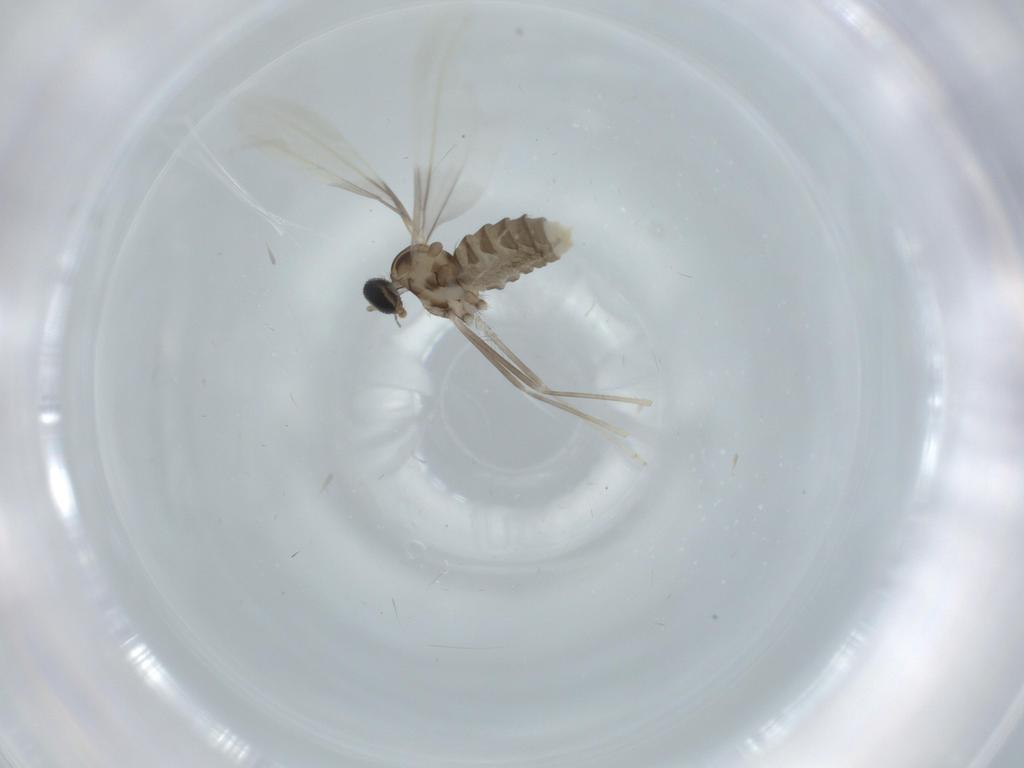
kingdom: Animalia
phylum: Arthropoda
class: Insecta
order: Diptera
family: Cecidomyiidae
